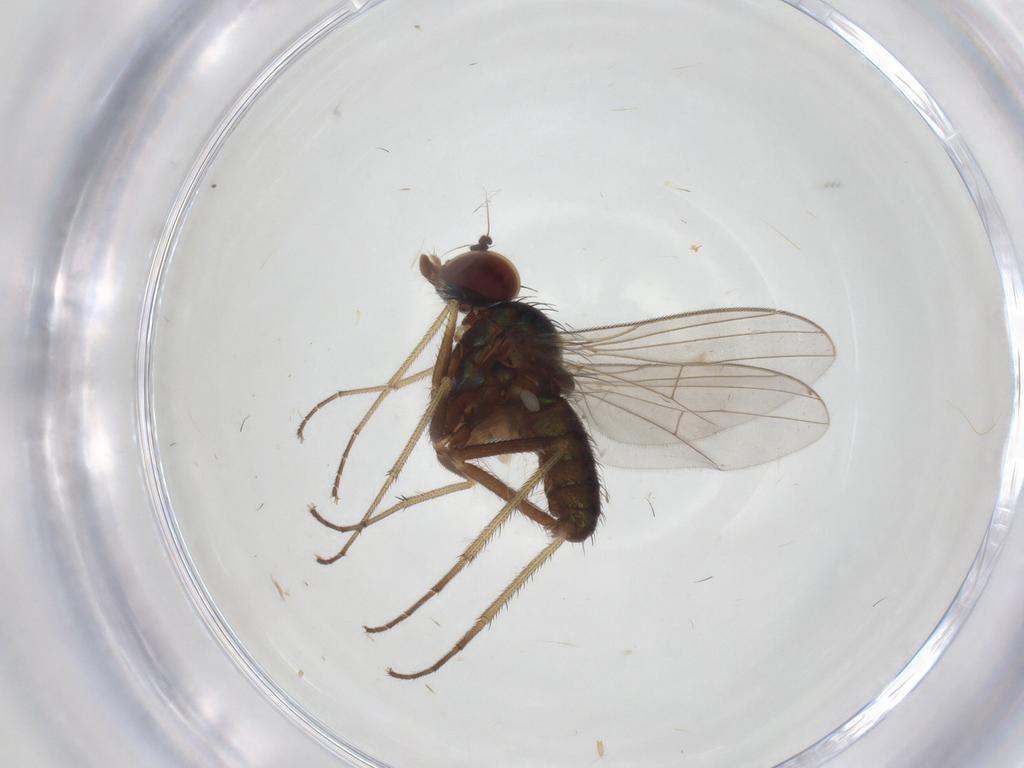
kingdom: Animalia
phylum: Arthropoda
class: Insecta
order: Diptera
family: Dolichopodidae
